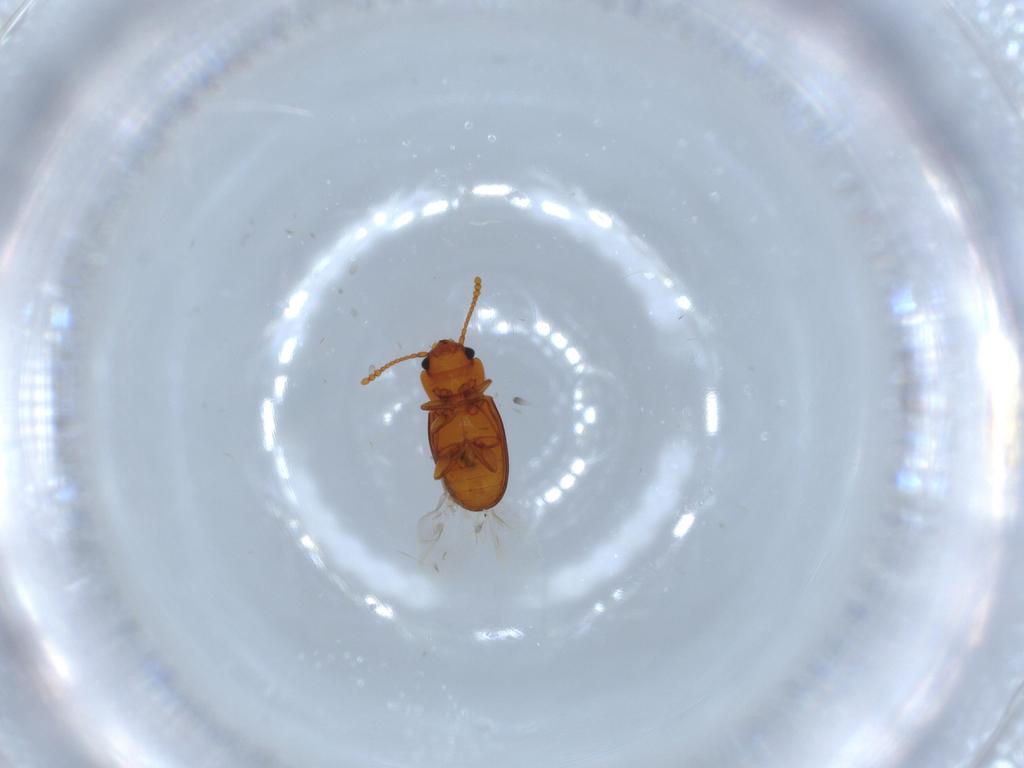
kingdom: Animalia
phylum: Arthropoda
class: Insecta
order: Coleoptera
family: Laemophloeidae
